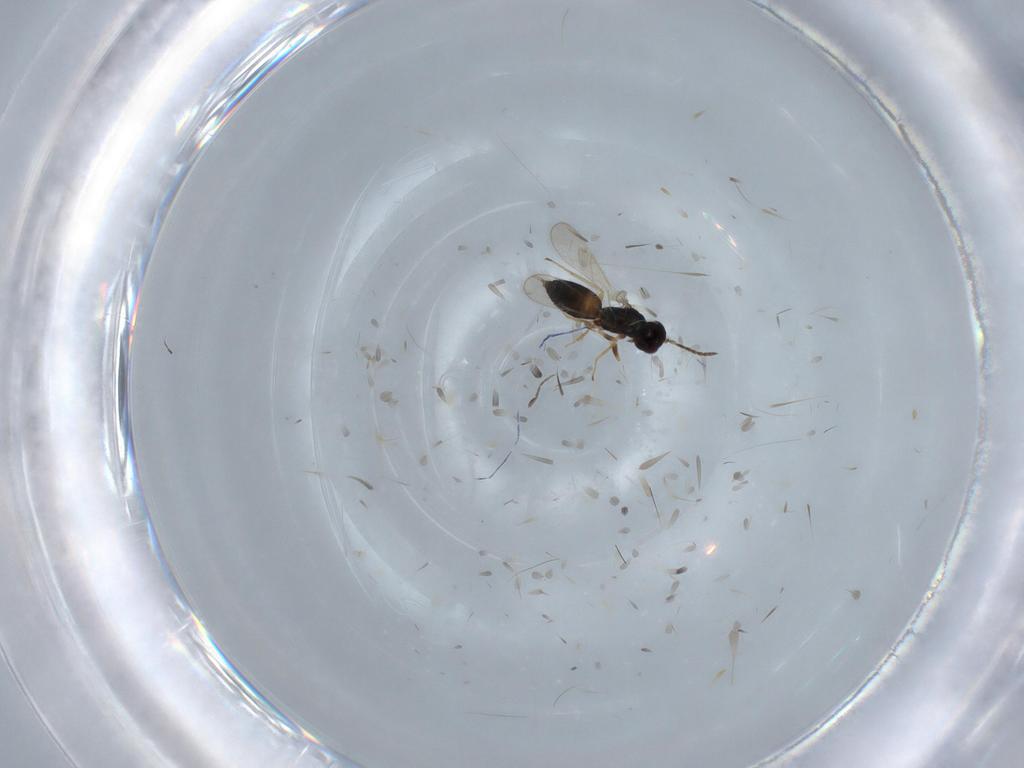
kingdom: Animalia
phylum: Arthropoda
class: Insecta
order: Hymenoptera
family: Eulophidae
